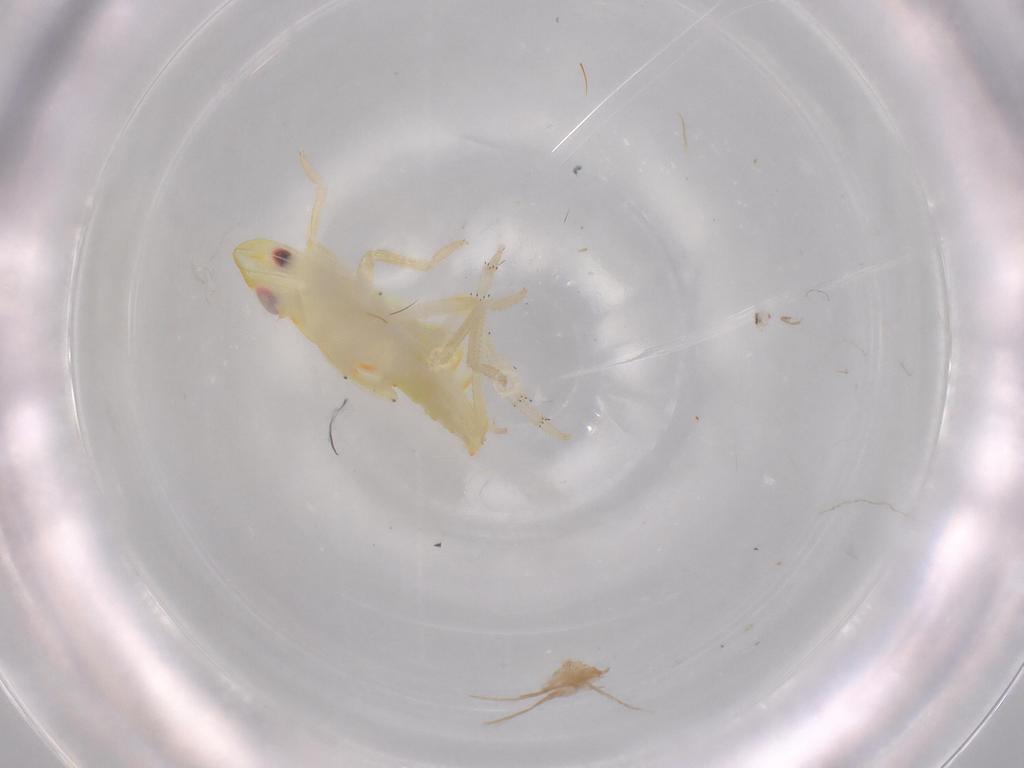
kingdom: Animalia
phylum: Arthropoda
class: Insecta
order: Hemiptera
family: Tropiduchidae
